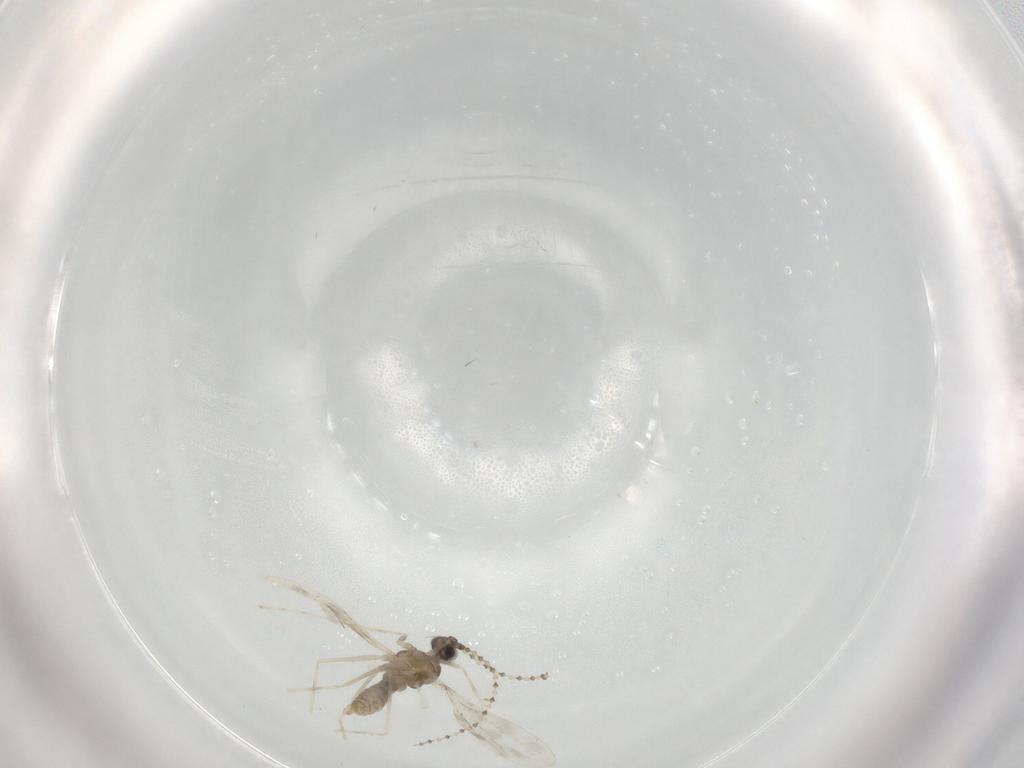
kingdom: Animalia
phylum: Arthropoda
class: Insecta
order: Diptera
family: Cecidomyiidae
